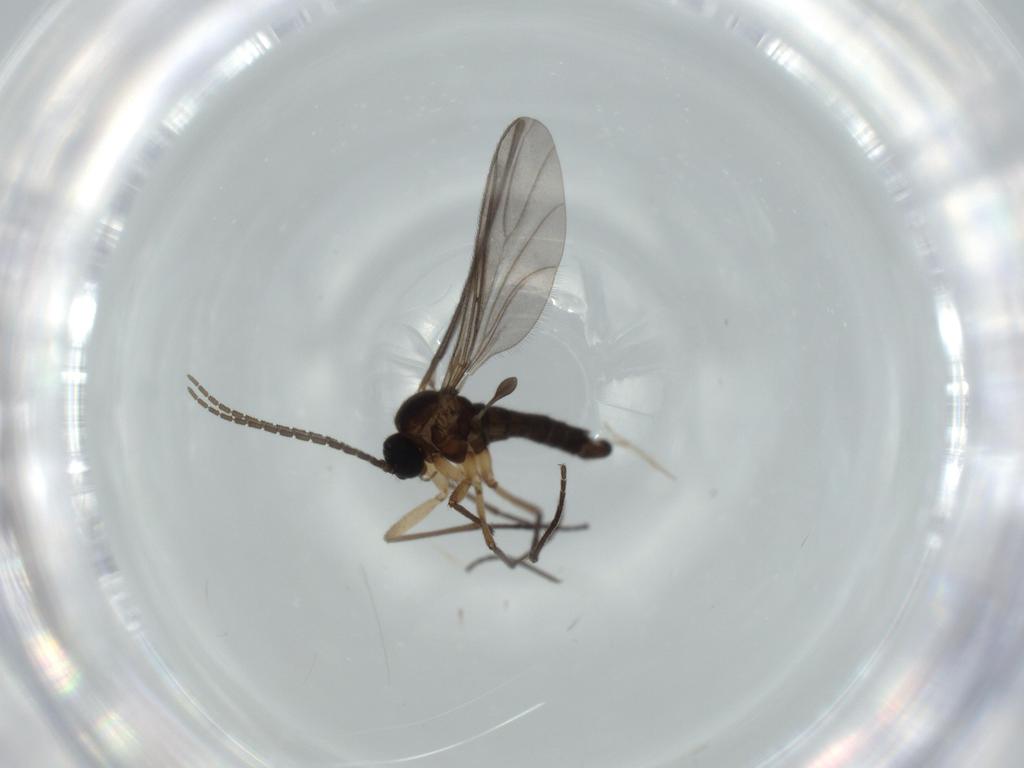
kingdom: Animalia
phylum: Arthropoda
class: Insecta
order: Diptera
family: Sciaridae
